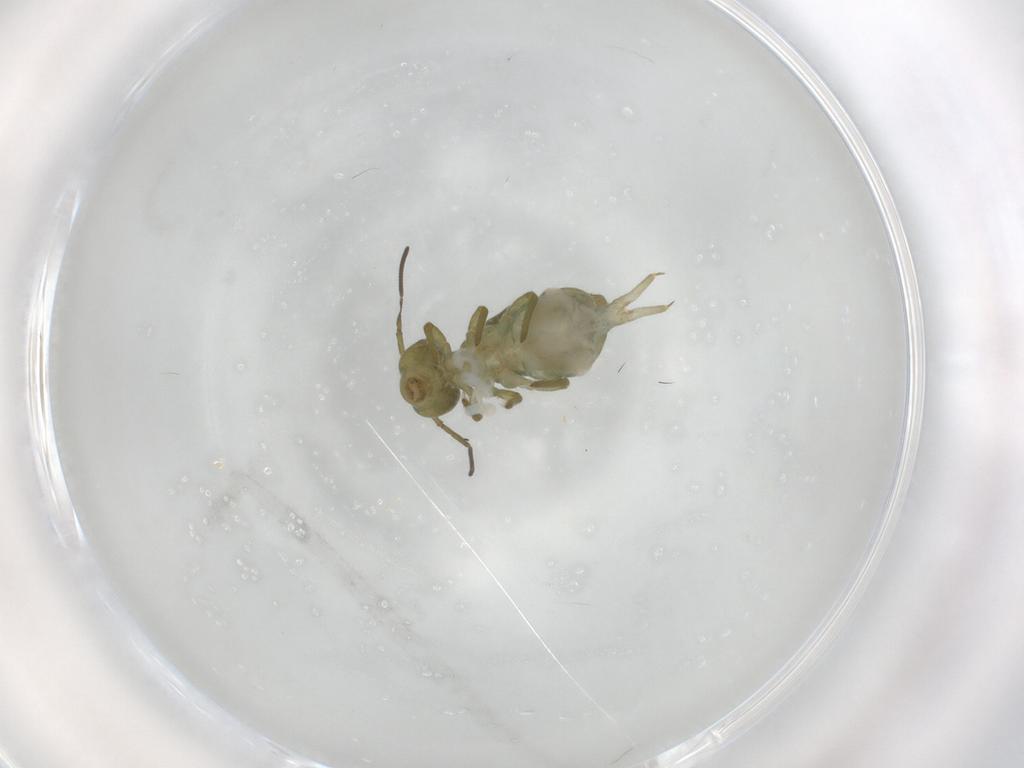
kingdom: Animalia
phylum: Arthropoda
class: Collembola
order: Symphypleona
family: Sminthuridae
